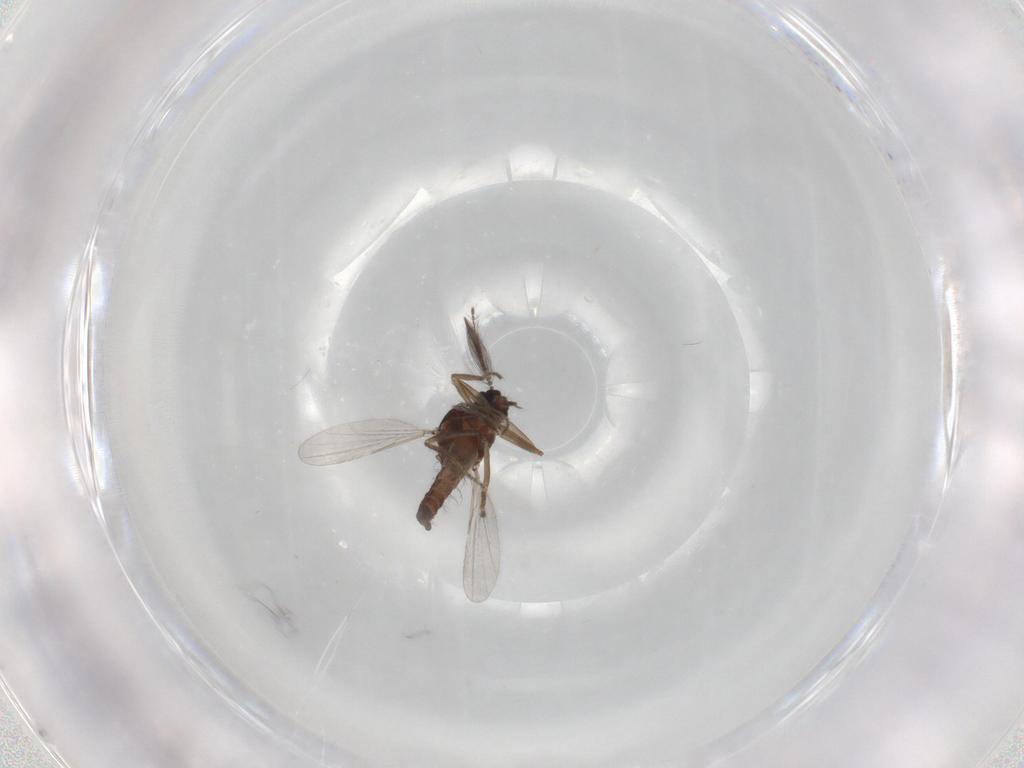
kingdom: Animalia
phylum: Arthropoda
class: Insecta
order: Diptera
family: Ceratopogonidae
